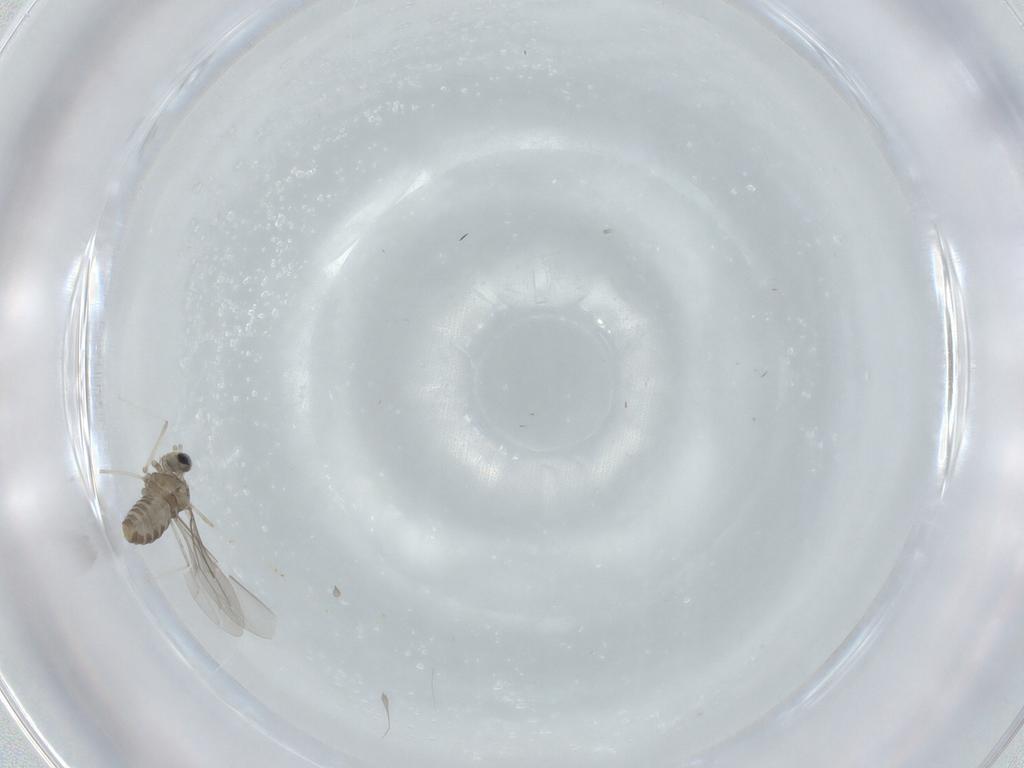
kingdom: Animalia
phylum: Arthropoda
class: Insecta
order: Diptera
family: Cecidomyiidae
